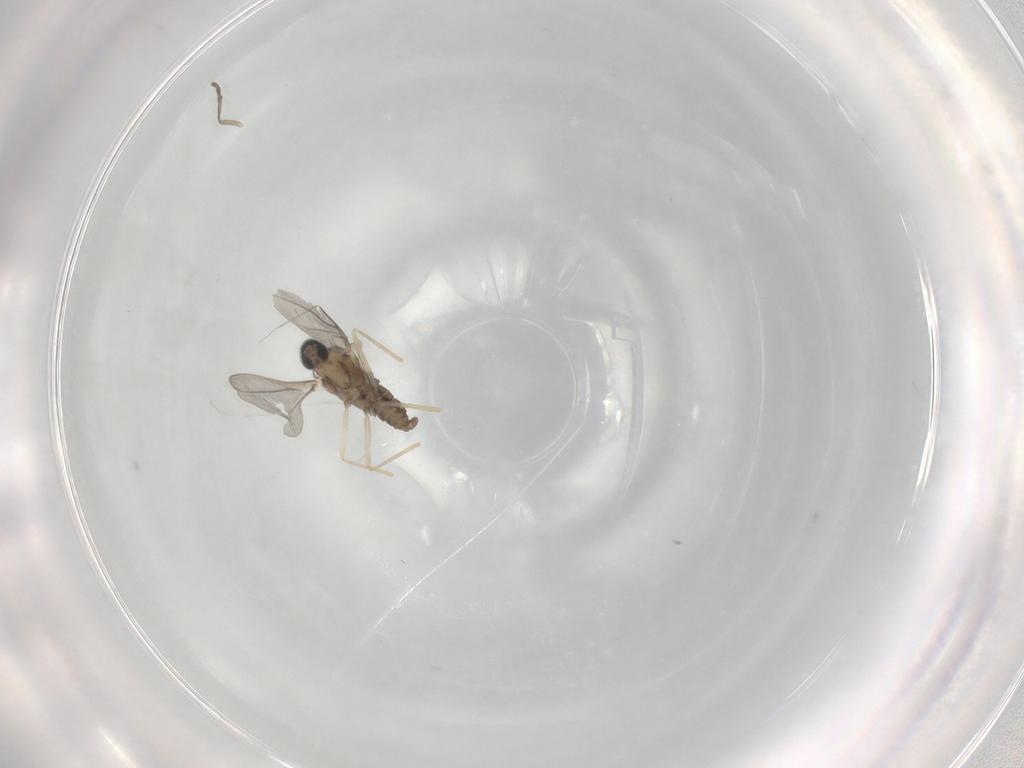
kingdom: Animalia
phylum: Arthropoda
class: Insecta
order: Diptera
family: Cecidomyiidae
